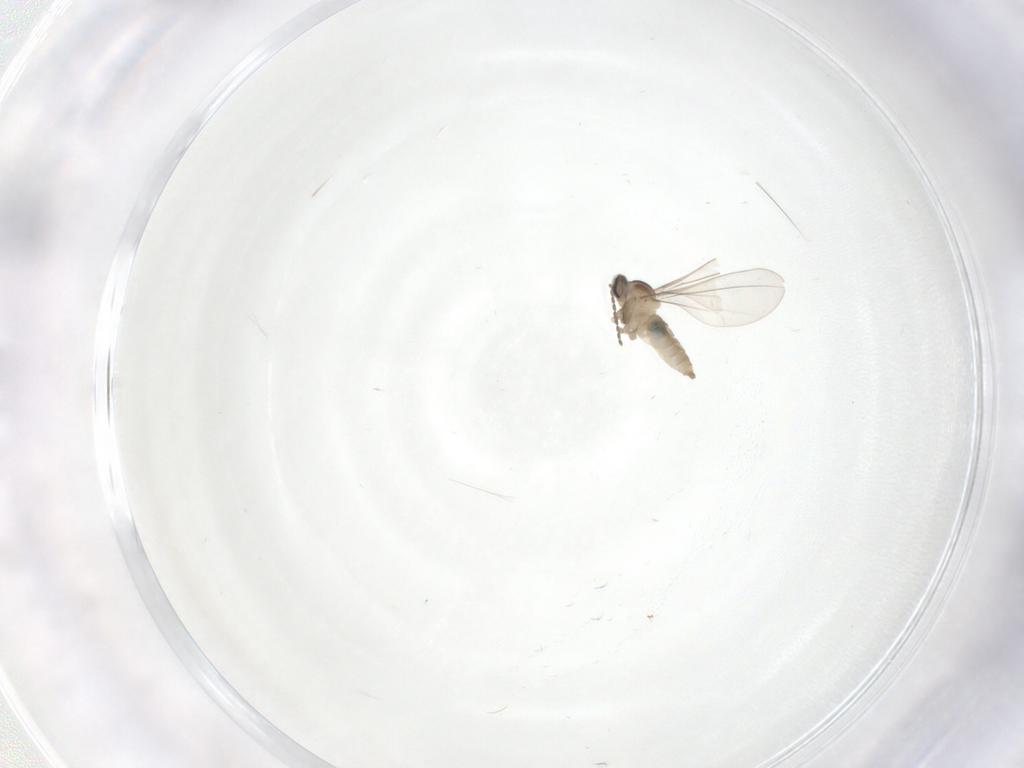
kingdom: Animalia
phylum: Arthropoda
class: Insecta
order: Diptera
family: Cecidomyiidae
